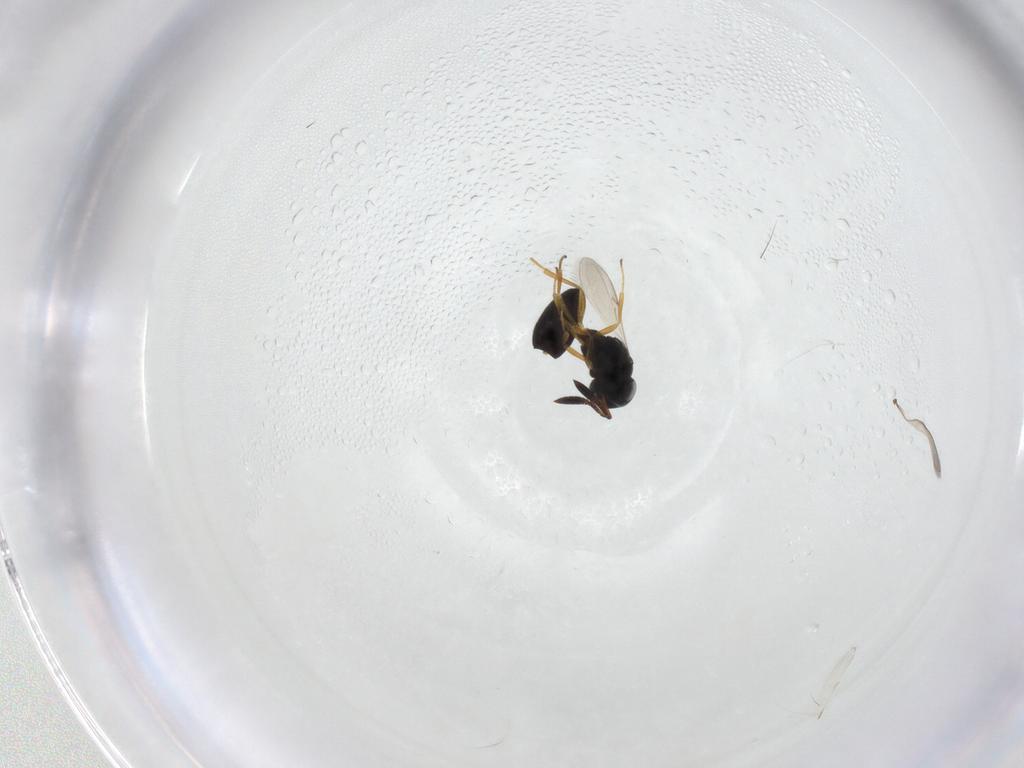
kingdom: Animalia
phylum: Arthropoda
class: Insecta
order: Hymenoptera
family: Scelionidae
